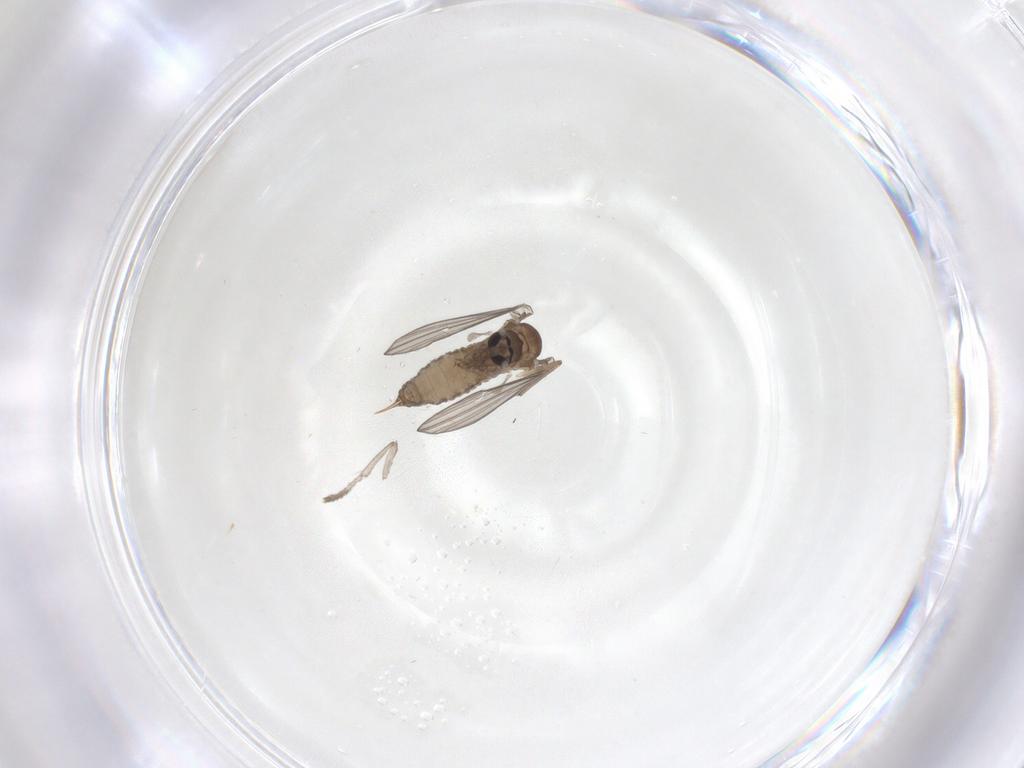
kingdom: Animalia
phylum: Arthropoda
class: Insecta
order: Diptera
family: Psychodidae
